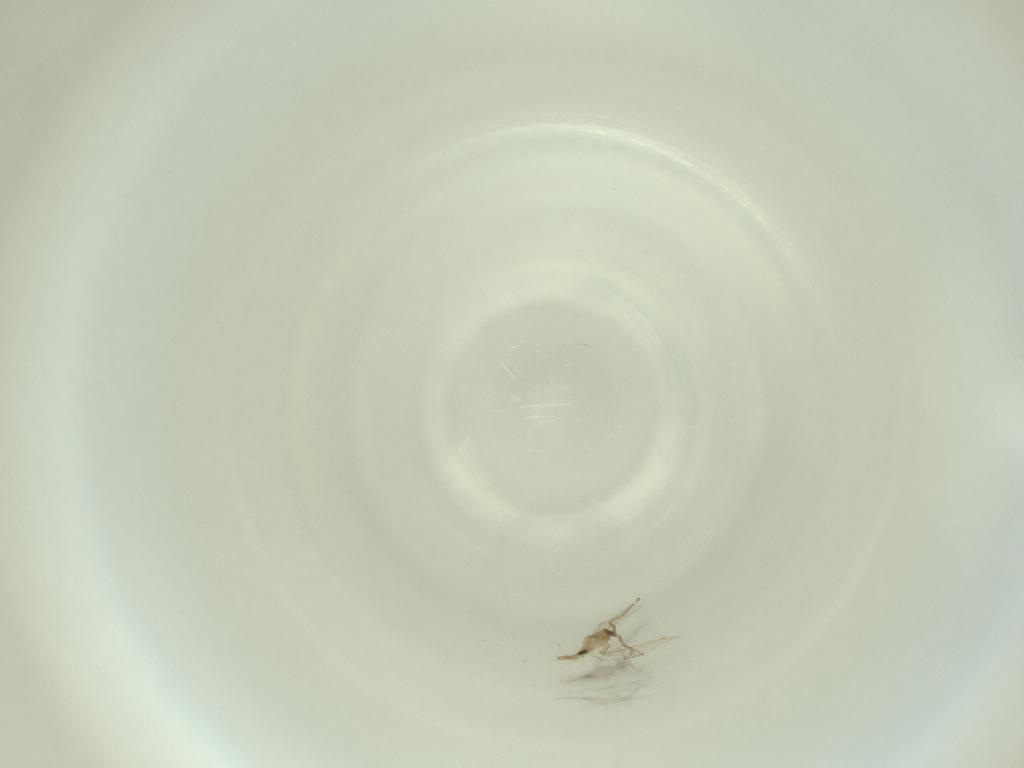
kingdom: Animalia
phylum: Arthropoda
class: Insecta
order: Diptera
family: Cecidomyiidae
